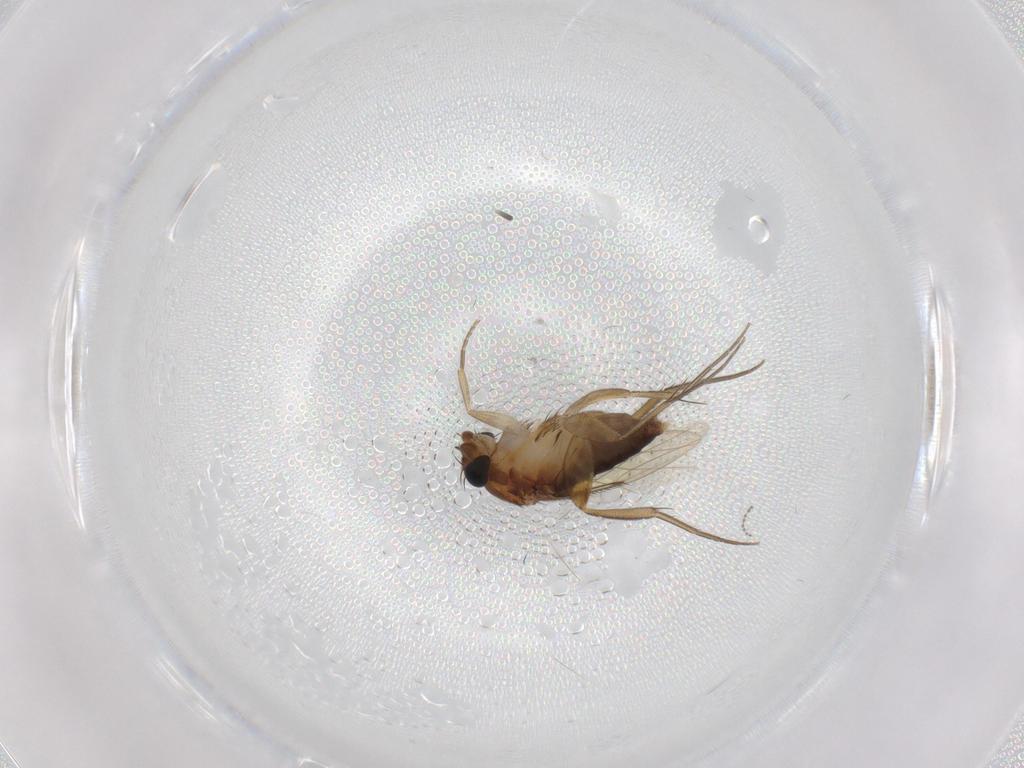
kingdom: Animalia
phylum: Arthropoda
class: Insecta
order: Diptera
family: Phoridae
